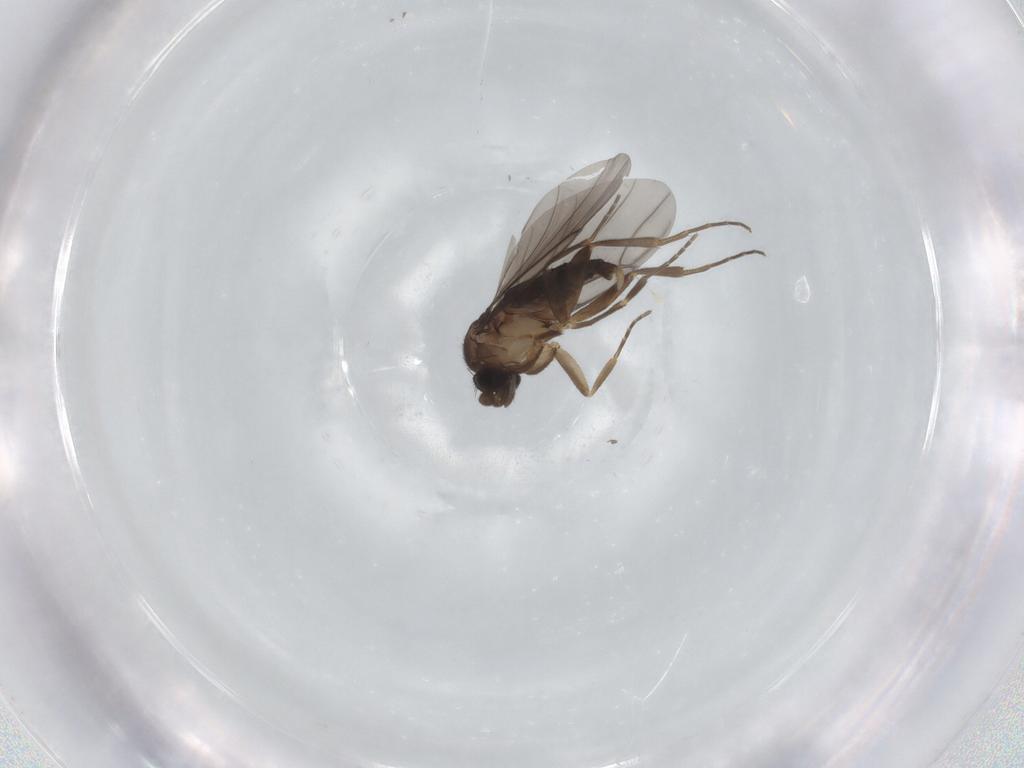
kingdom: Animalia
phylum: Arthropoda
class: Insecta
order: Diptera
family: Phoridae
